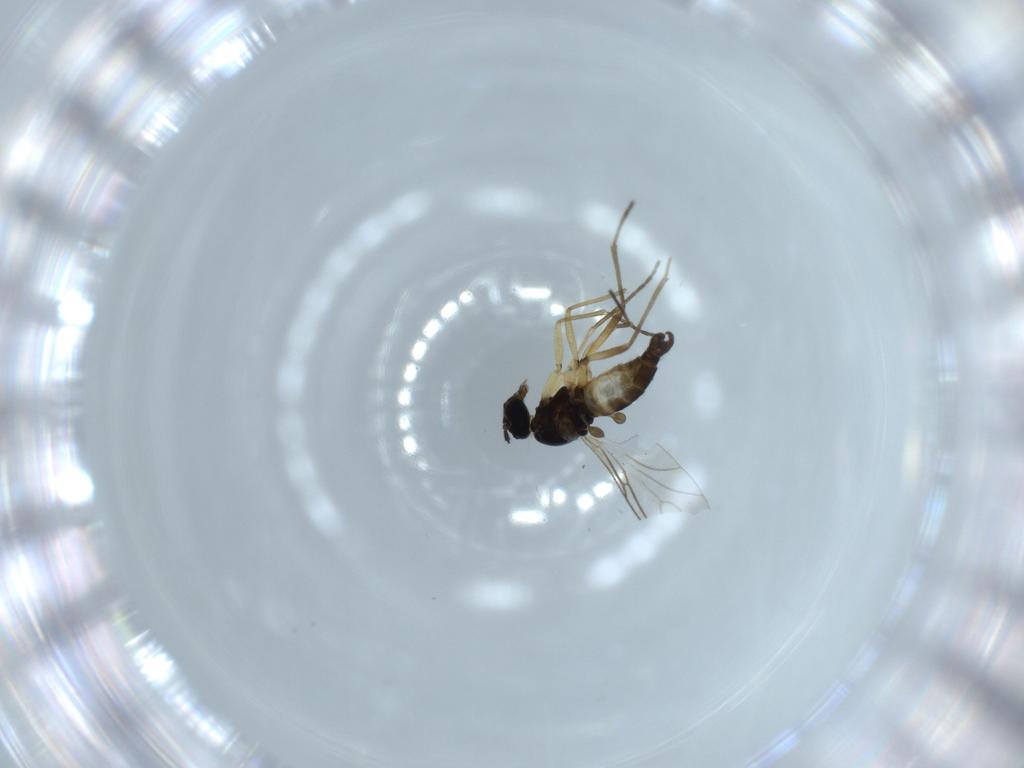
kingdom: Animalia
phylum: Arthropoda
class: Insecta
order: Diptera
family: Sciaridae
